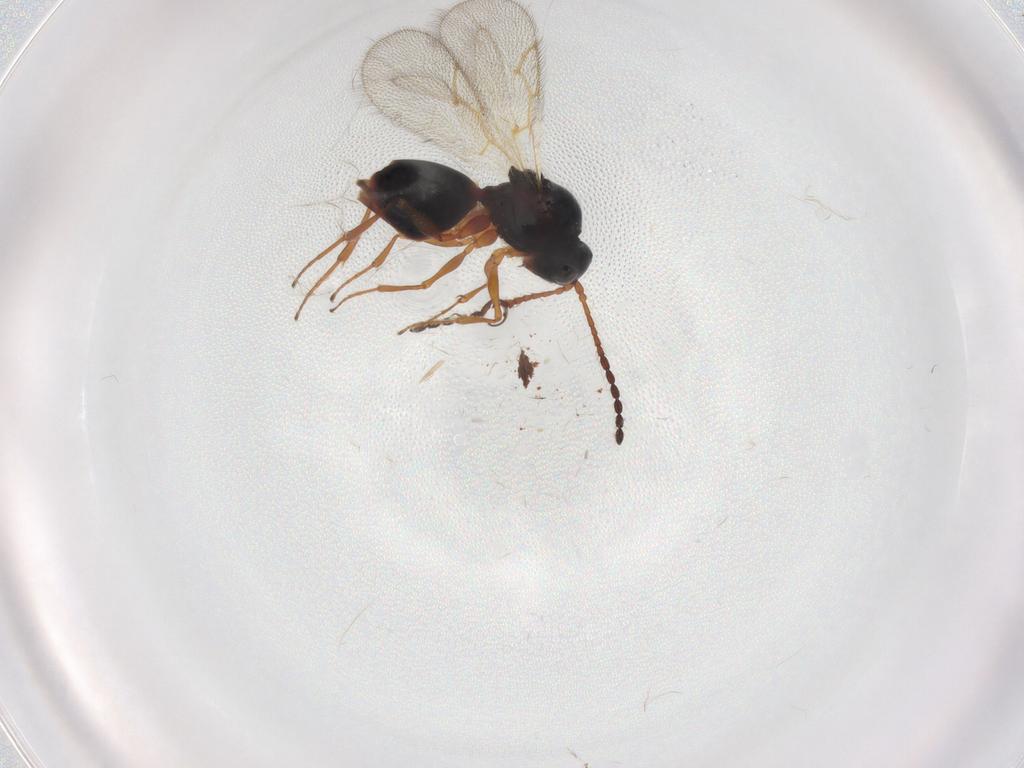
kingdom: Animalia
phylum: Arthropoda
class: Insecta
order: Hymenoptera
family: Figitidae
